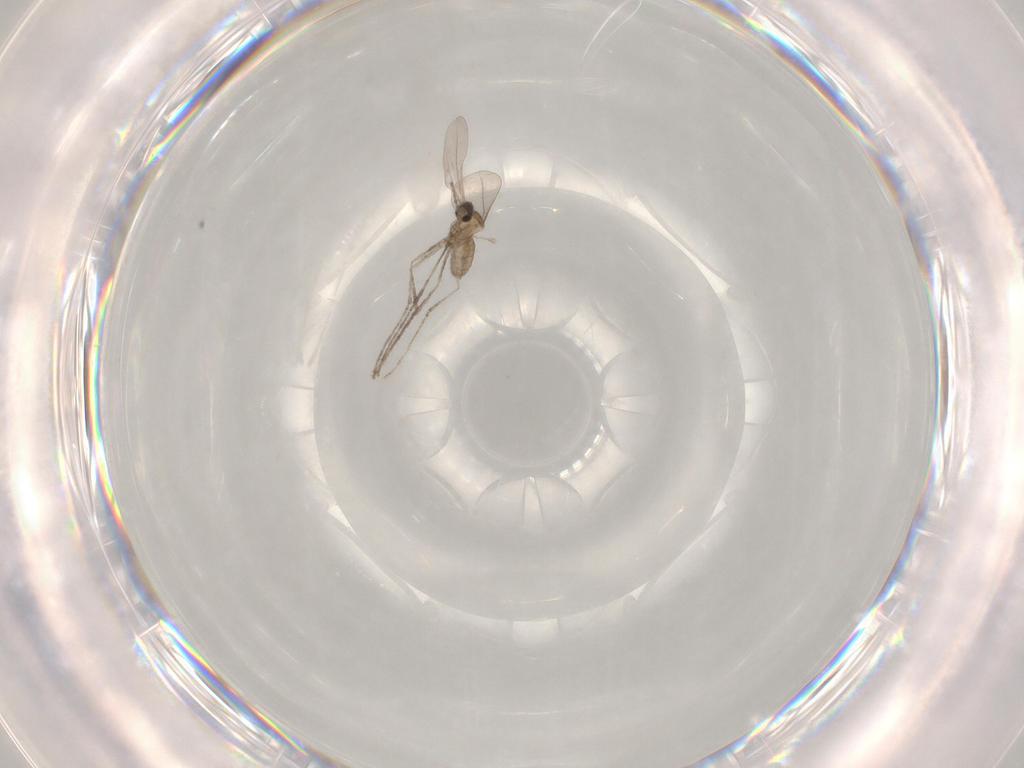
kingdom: Animalia
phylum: Arthropoda
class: Insecta
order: Diptera
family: Cecidomyiidae
